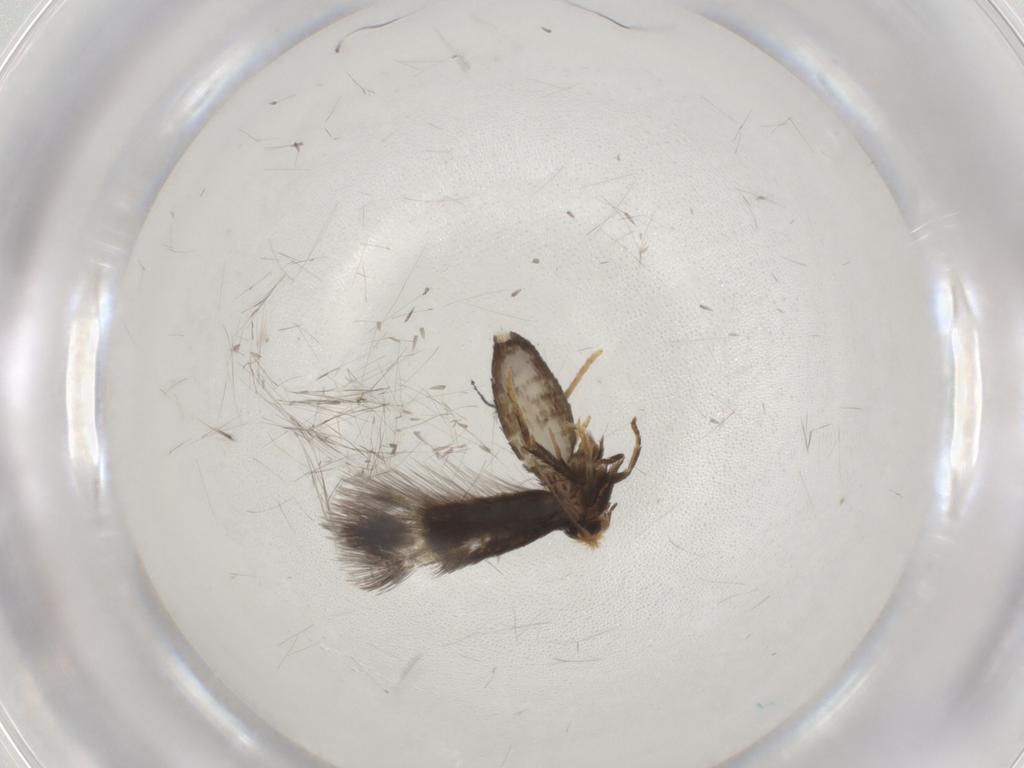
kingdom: Animalia
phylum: Arthropoda
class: Insecta
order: Lepidoptera
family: Nepticulidae
